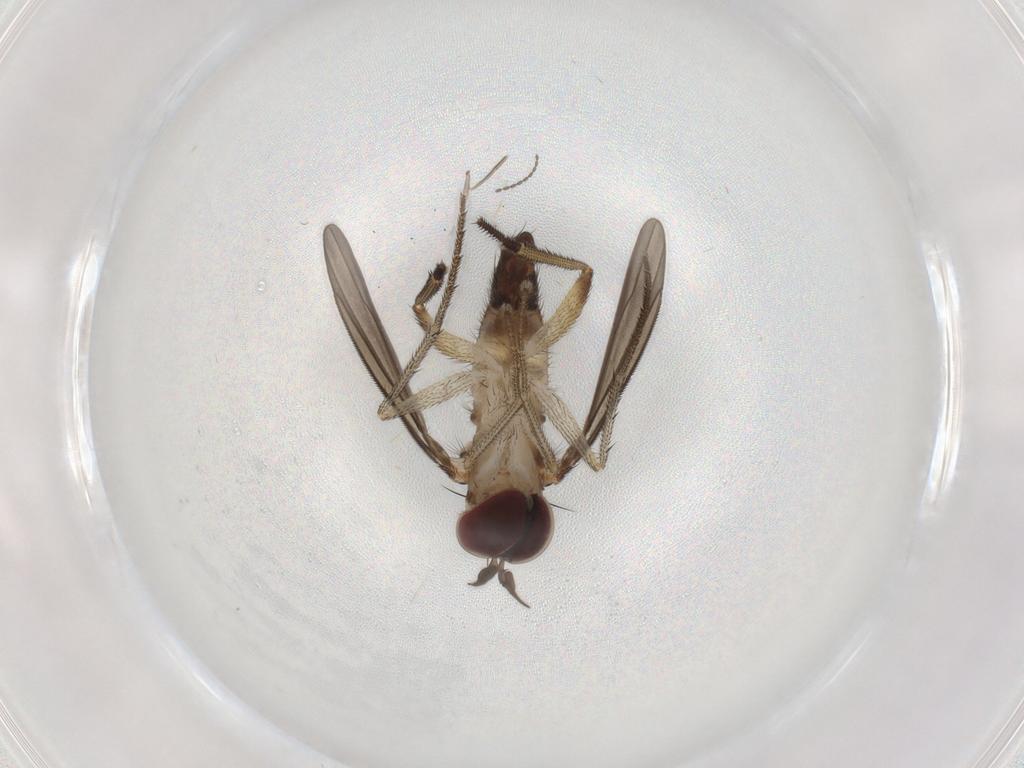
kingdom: Animalia
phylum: Arthropoda
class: Insecta
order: Diptera
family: Dolichopodidae
